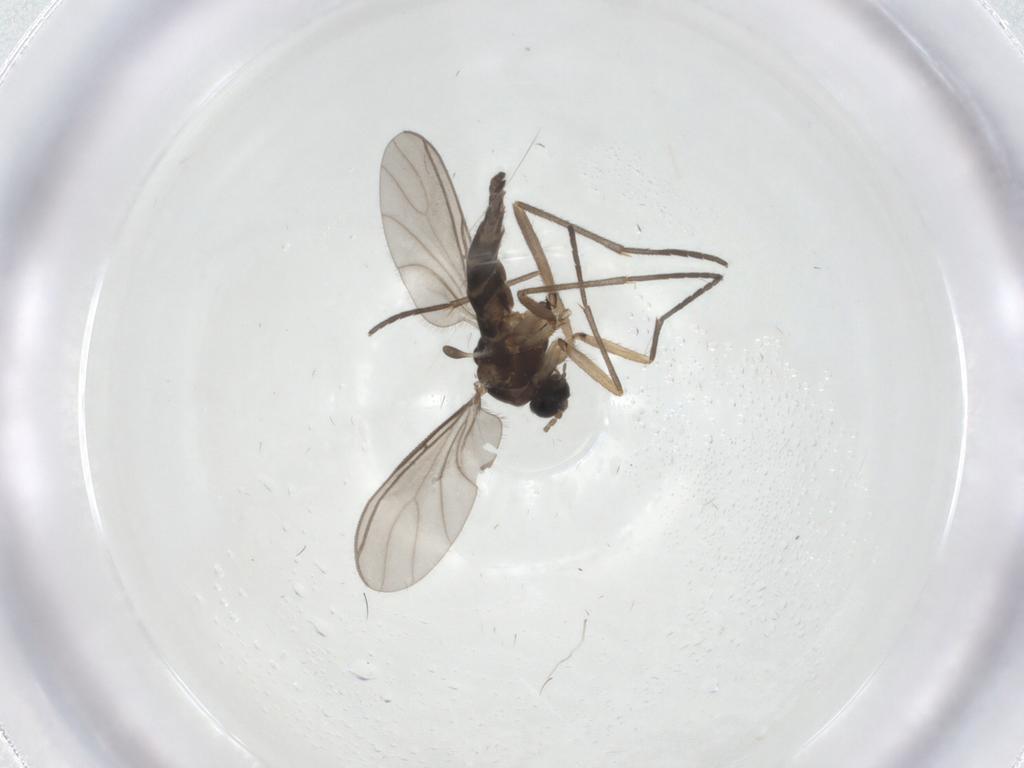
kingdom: Animalia
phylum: Arthropoda
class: Insecta
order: Diptera
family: Sciaridae
